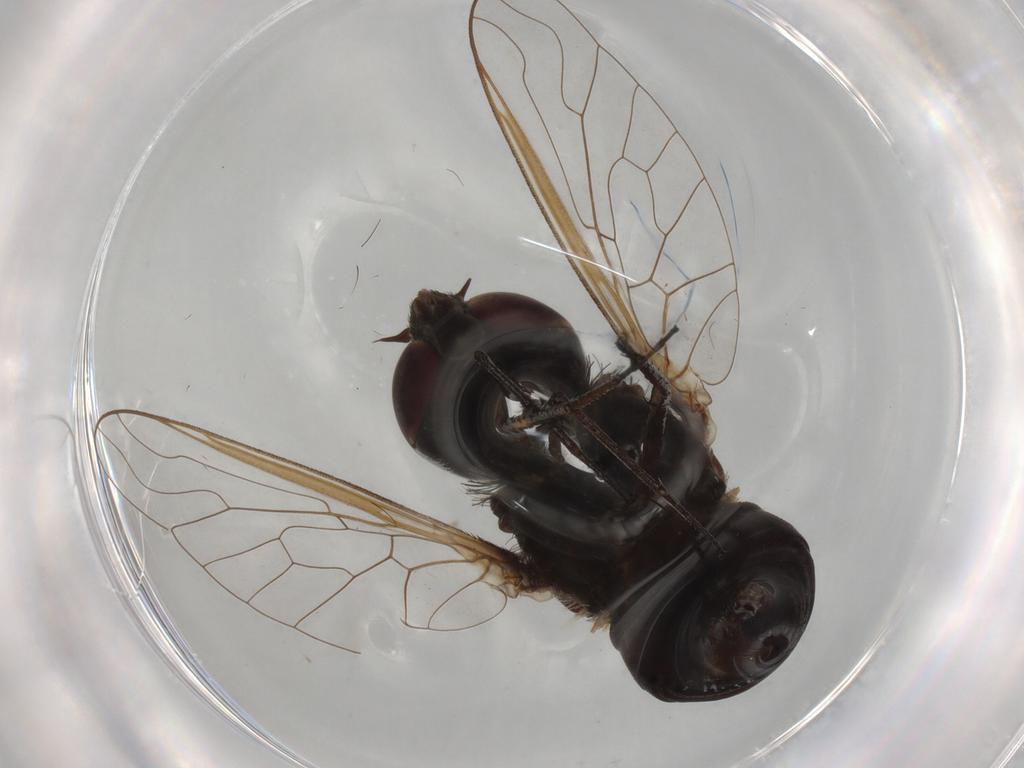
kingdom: Animalia
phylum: Arthropoda
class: Insecta
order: Diptera
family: Bombyliidae
